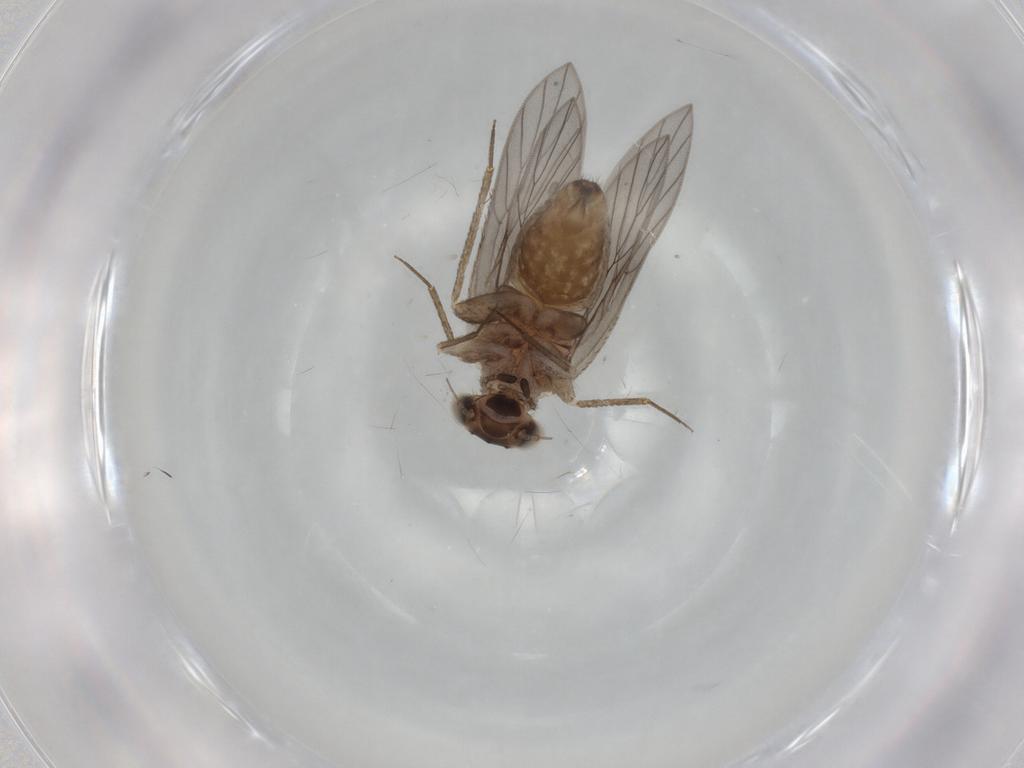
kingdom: Animalia
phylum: Arthropoda
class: Insecta
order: Psocodea
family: Lepidopsocidae
